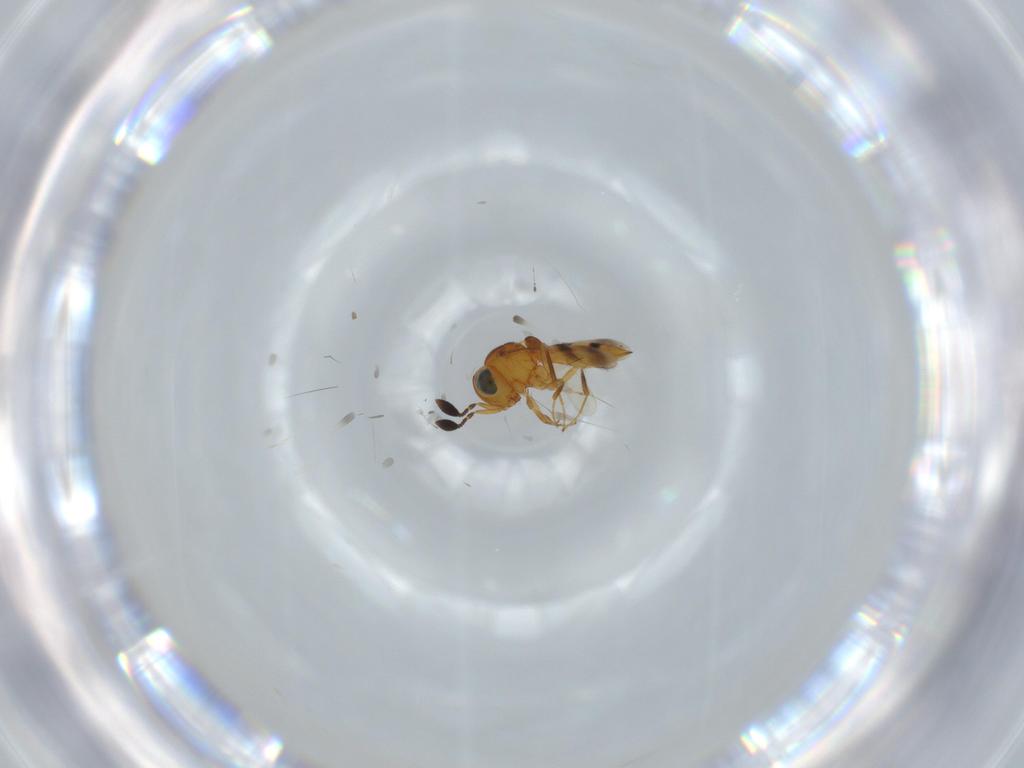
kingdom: Animalia
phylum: Arthropoda
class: Insecta
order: Hymenoptera
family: Scelionidae
